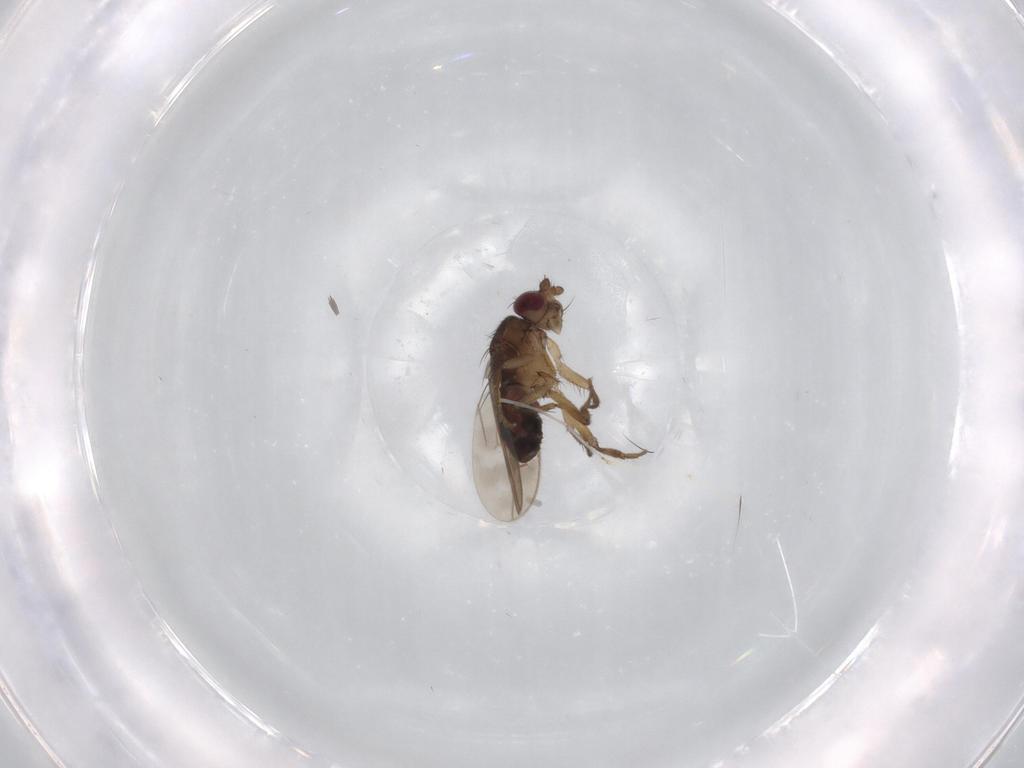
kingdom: Animalia
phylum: Arthropoda
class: Insecta
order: Diptera
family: Sphaeroceridae
